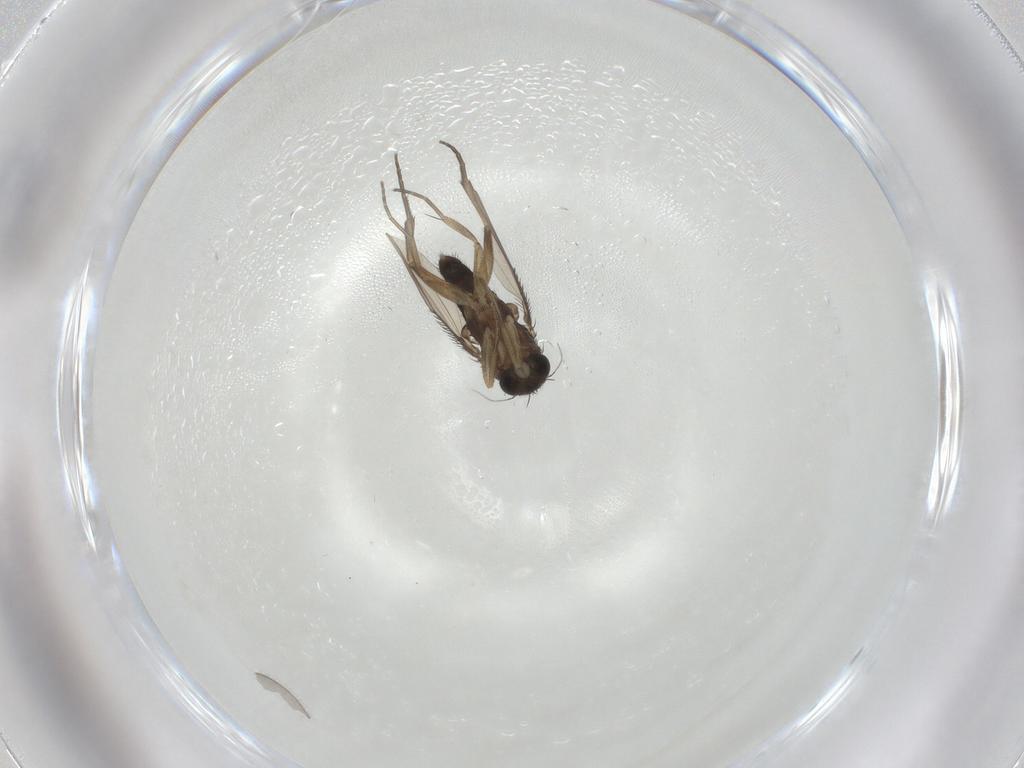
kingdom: Animalia
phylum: Arthropoda
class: Insecta
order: Diptera
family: Phoridae
